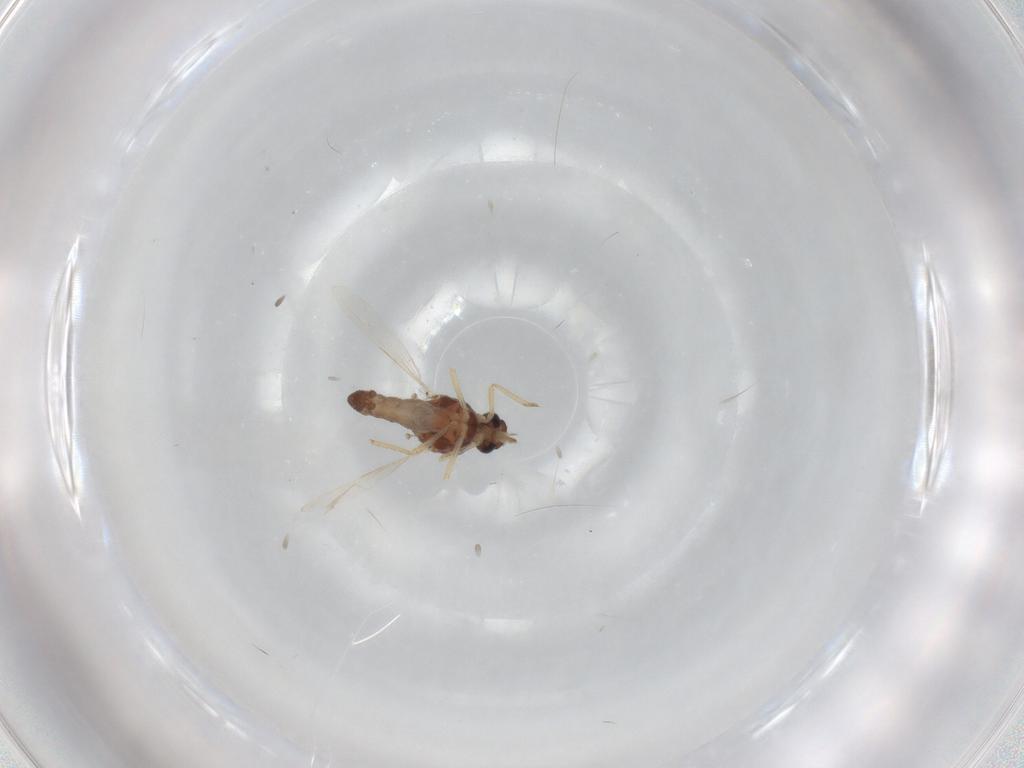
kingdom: Animalia
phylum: Arthropoda
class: Insecta
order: Diptera
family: Ceratopogonidae
